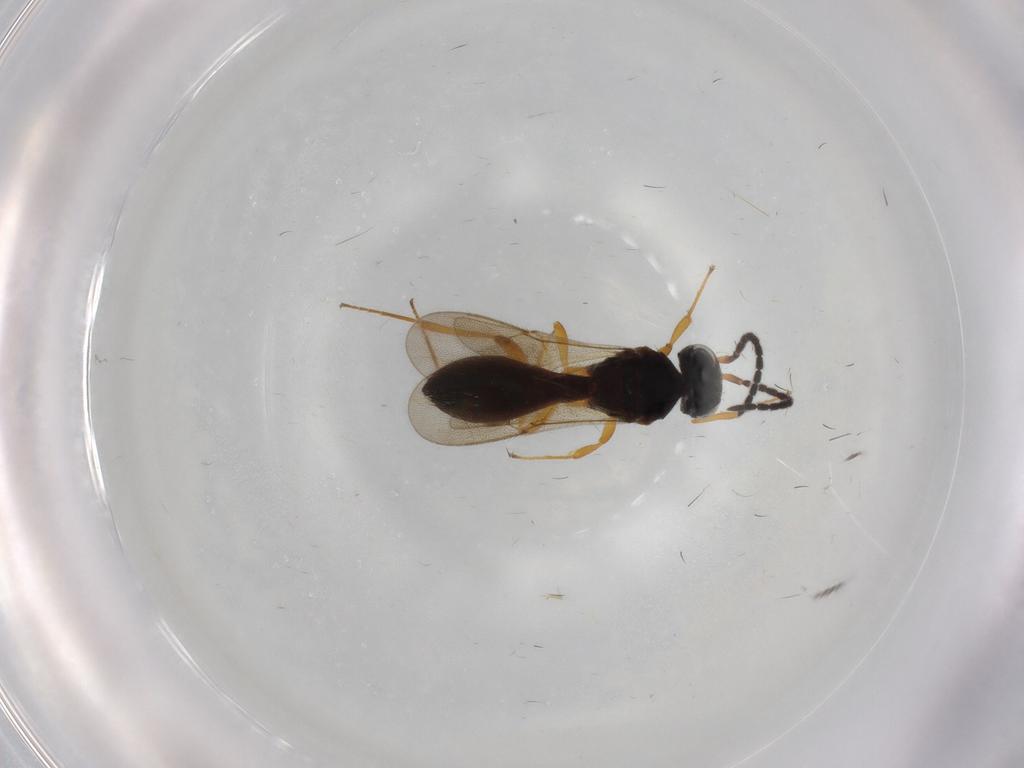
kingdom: Animalia
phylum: Arthropoda
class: Insecta
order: Hymenoptera
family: Scelionidae
